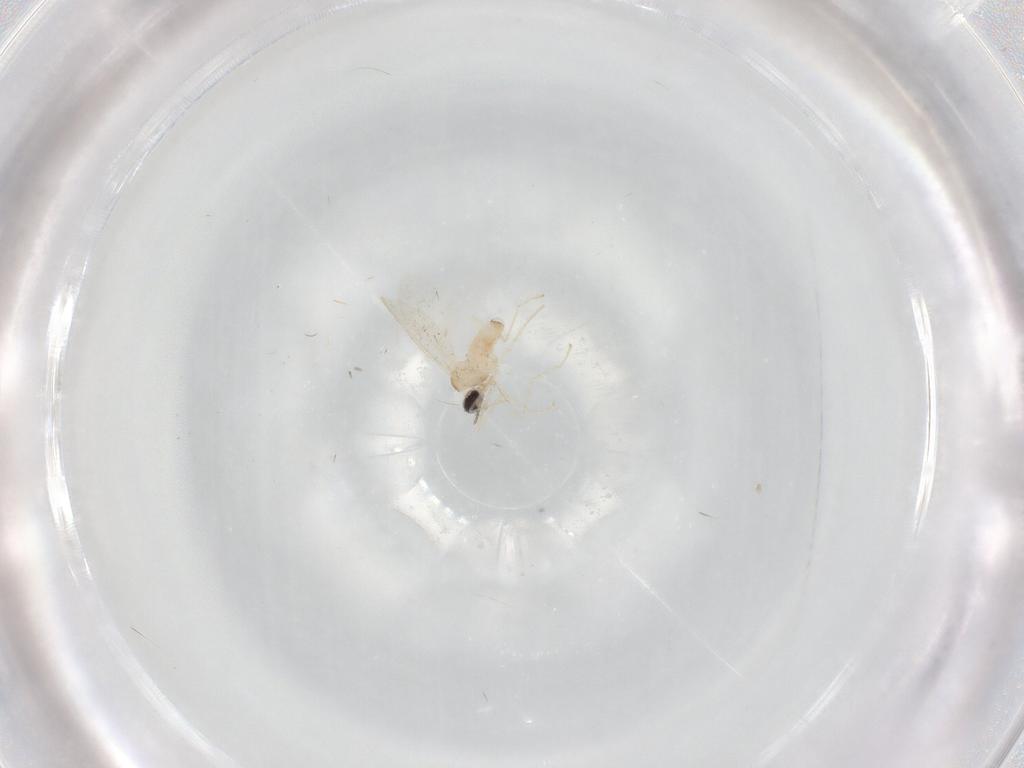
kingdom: Animalia
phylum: Arthropoda
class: Insecta
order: Diptera
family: Cecidomyiidae
